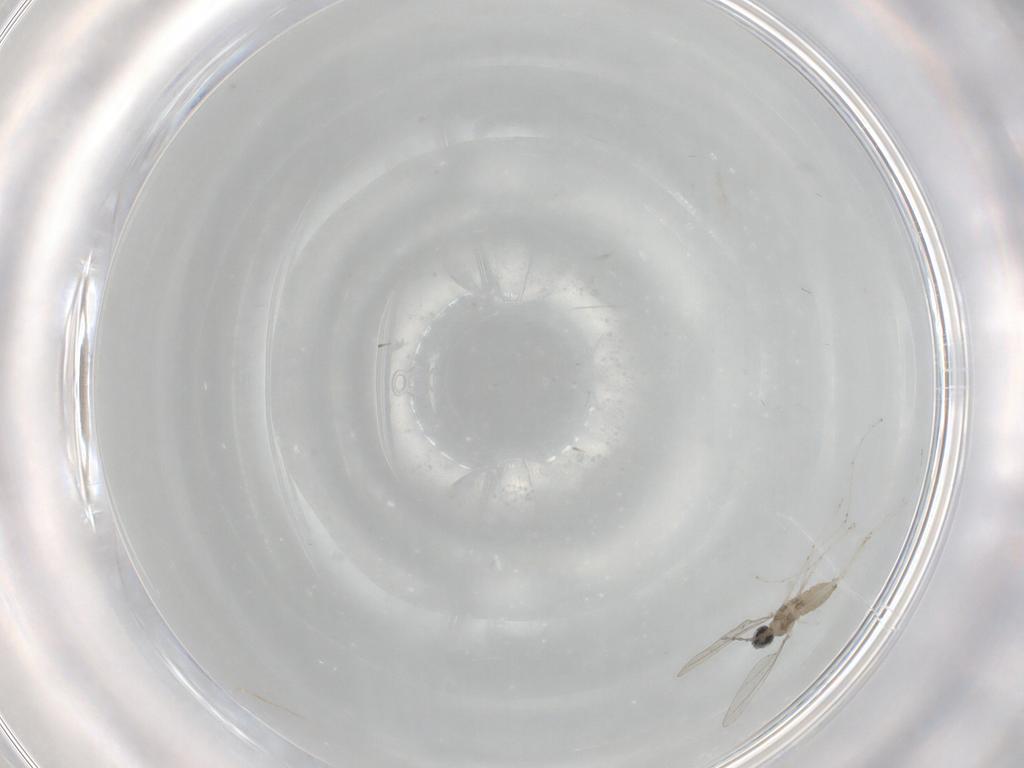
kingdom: Animalia
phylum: Arthropoda
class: Insecta
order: Diptera
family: Cecidomyiidae
